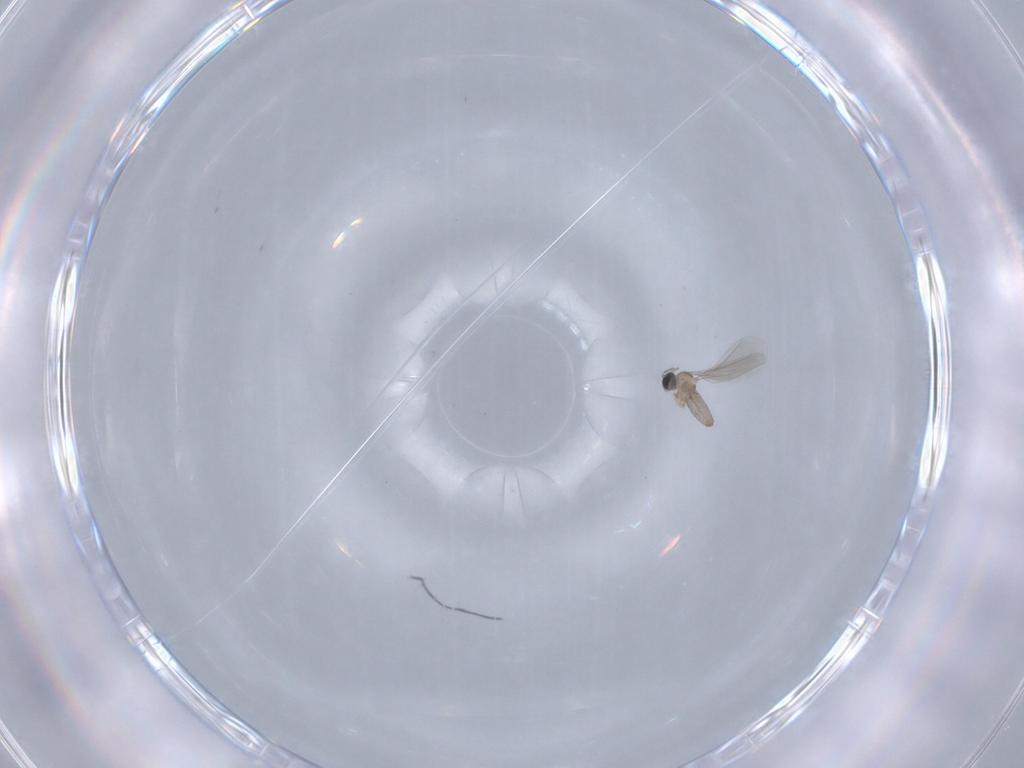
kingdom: Animalia
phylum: Arthropoda
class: Insecta
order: Diptera
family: Cecidomyiidae
